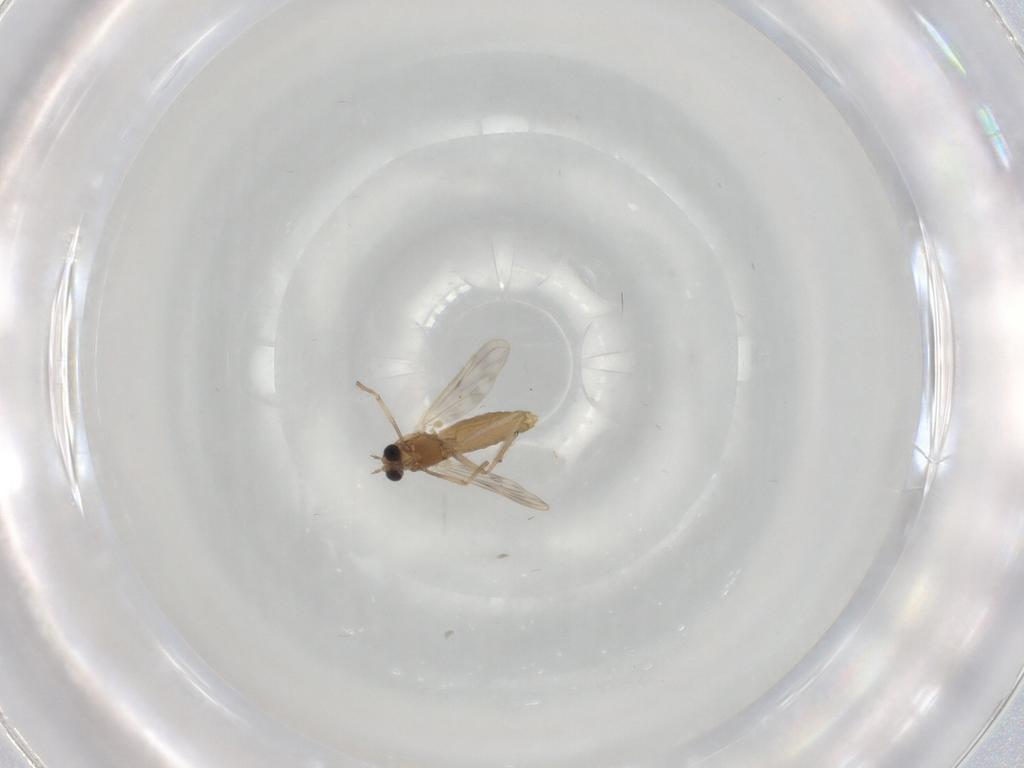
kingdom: Animalia
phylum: Arthropoda
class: Insecta
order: Diptera
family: Chironomidae
